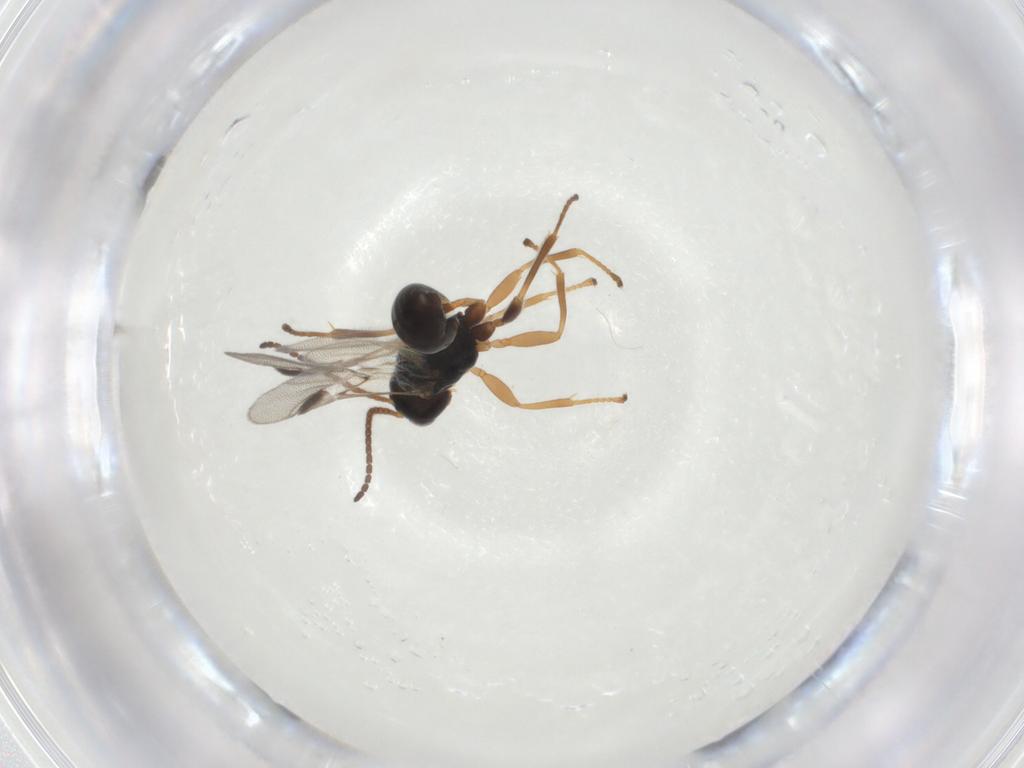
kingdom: Animalia
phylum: Arthropoda
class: Insecta
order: Hymenoptera
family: Braconidae
